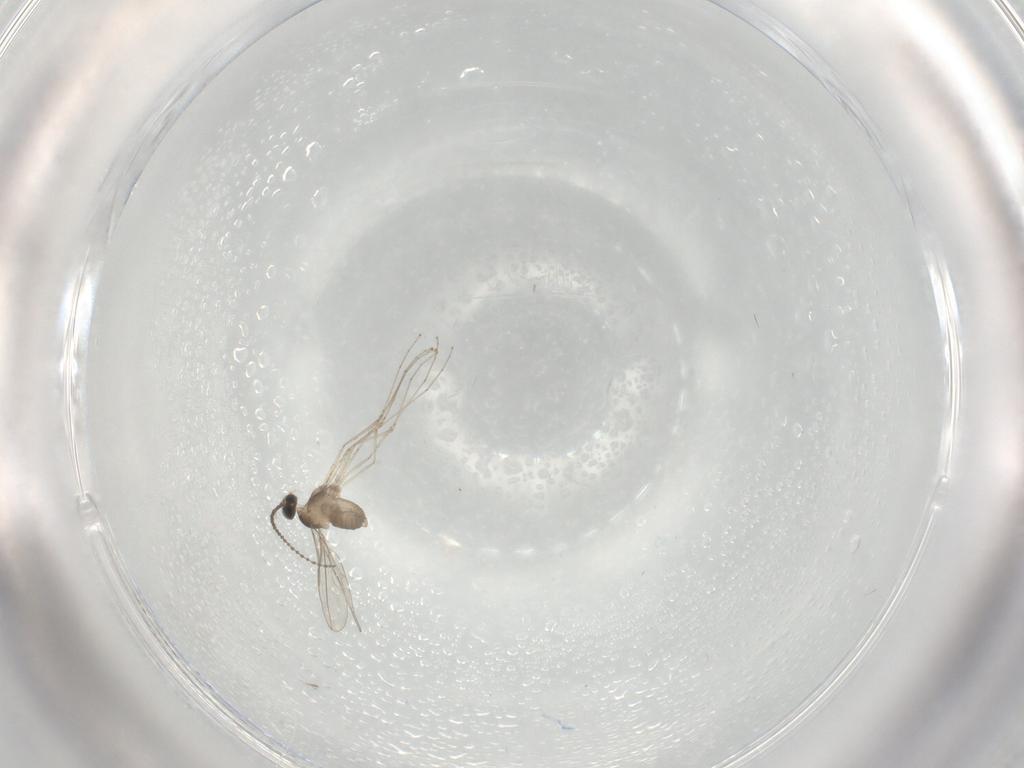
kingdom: Animalia
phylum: Arthropoda
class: Insecta
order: Diptera
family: Cecidomyiidae
